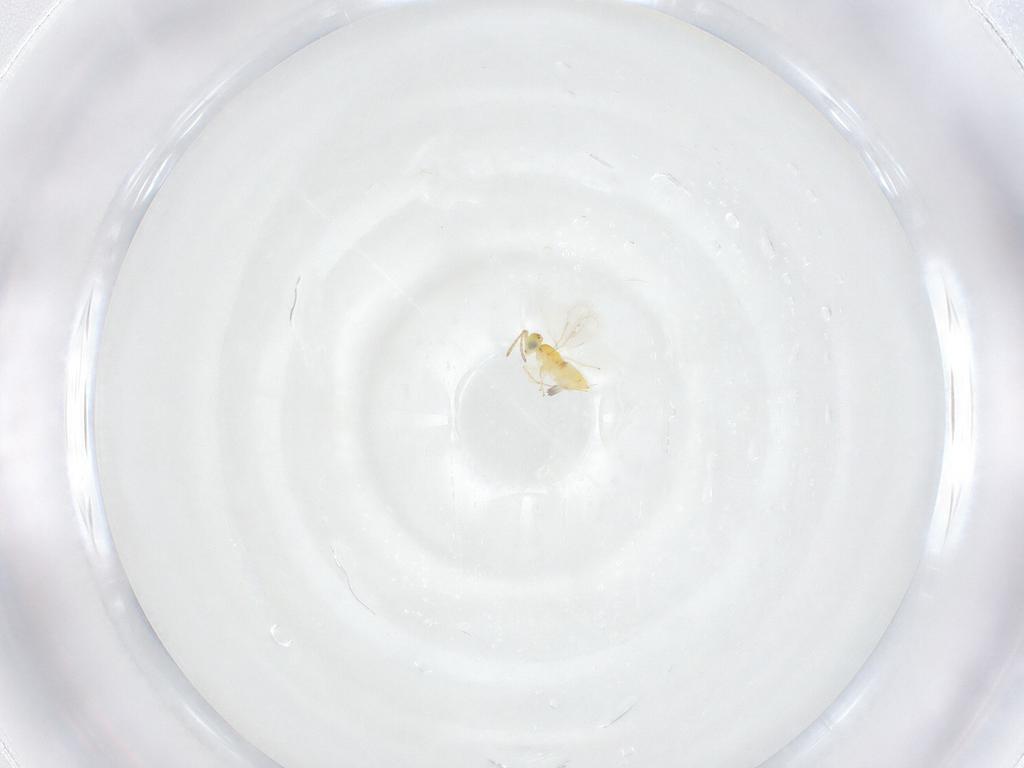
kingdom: Animalia
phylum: Arthropoda
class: Insecta
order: Hymenoptera
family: Aphelinidae
